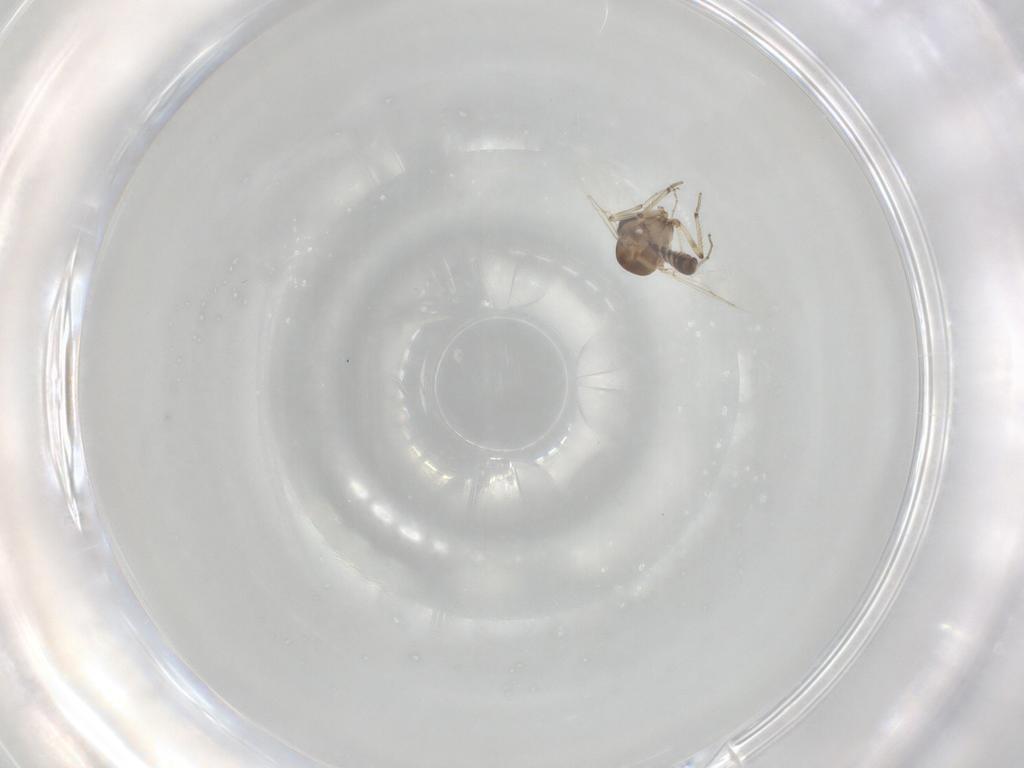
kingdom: Animalia
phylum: Arthropoda
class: Insecta
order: Diptera
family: Ceratopogonidae
